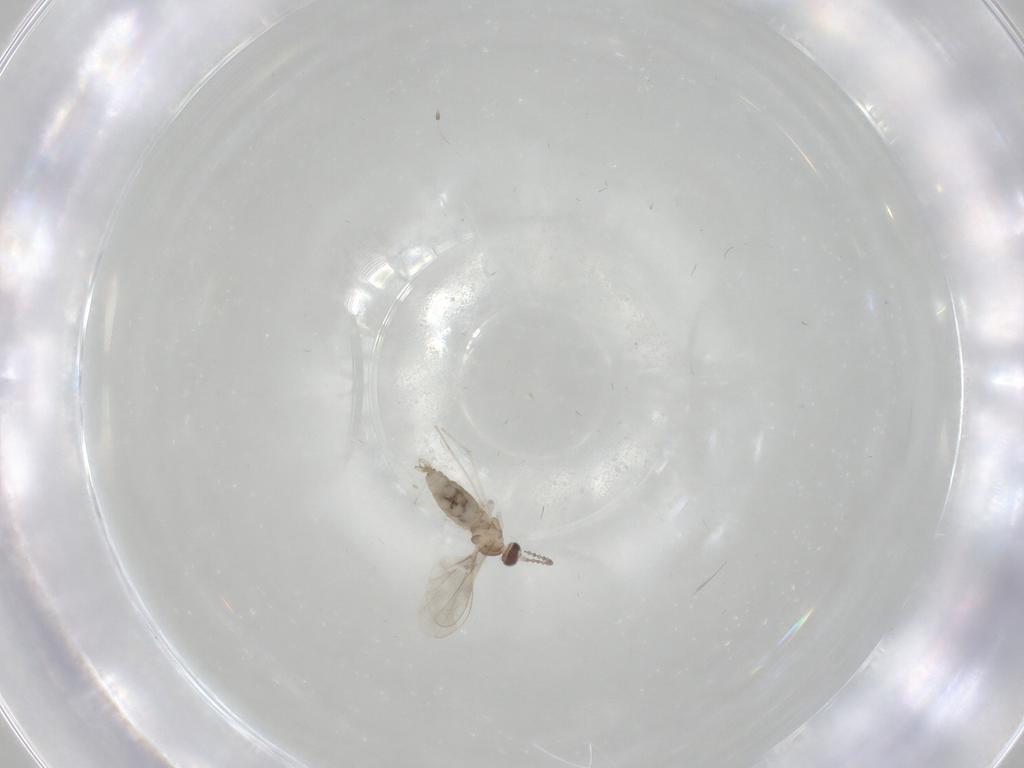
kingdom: Animalia
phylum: Arthropoda
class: Insecta
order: Diptera
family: Cecidomyiidae
